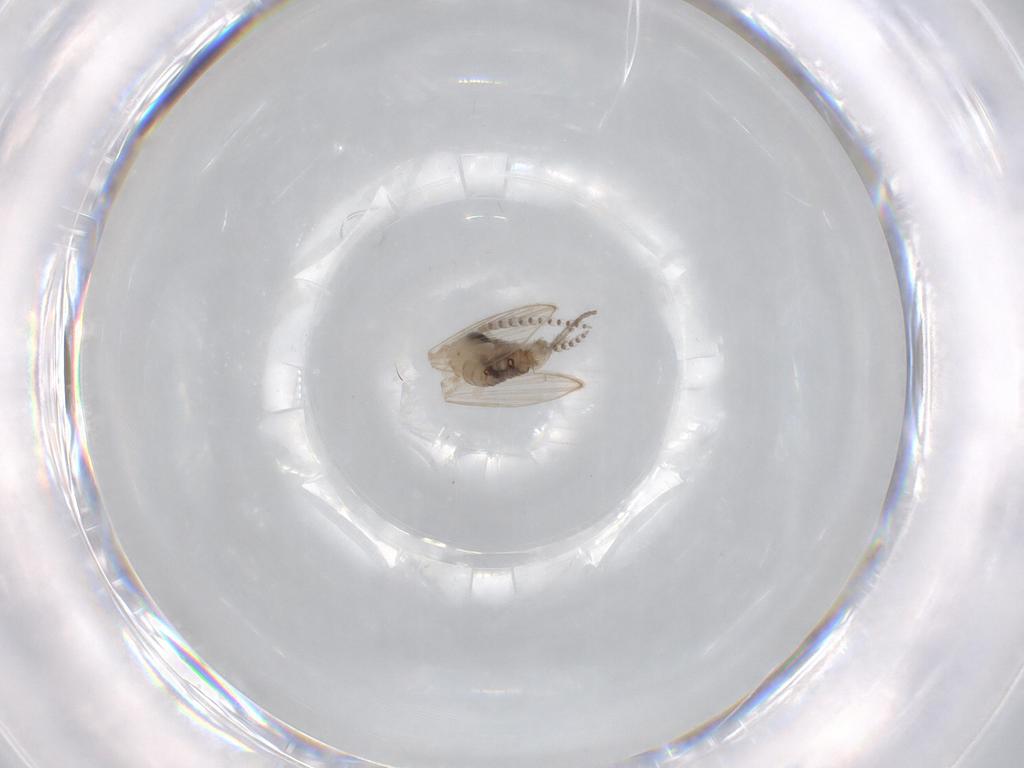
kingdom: Animalia
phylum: Arthropoda
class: Insecta
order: Diptera
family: Psychodidae
